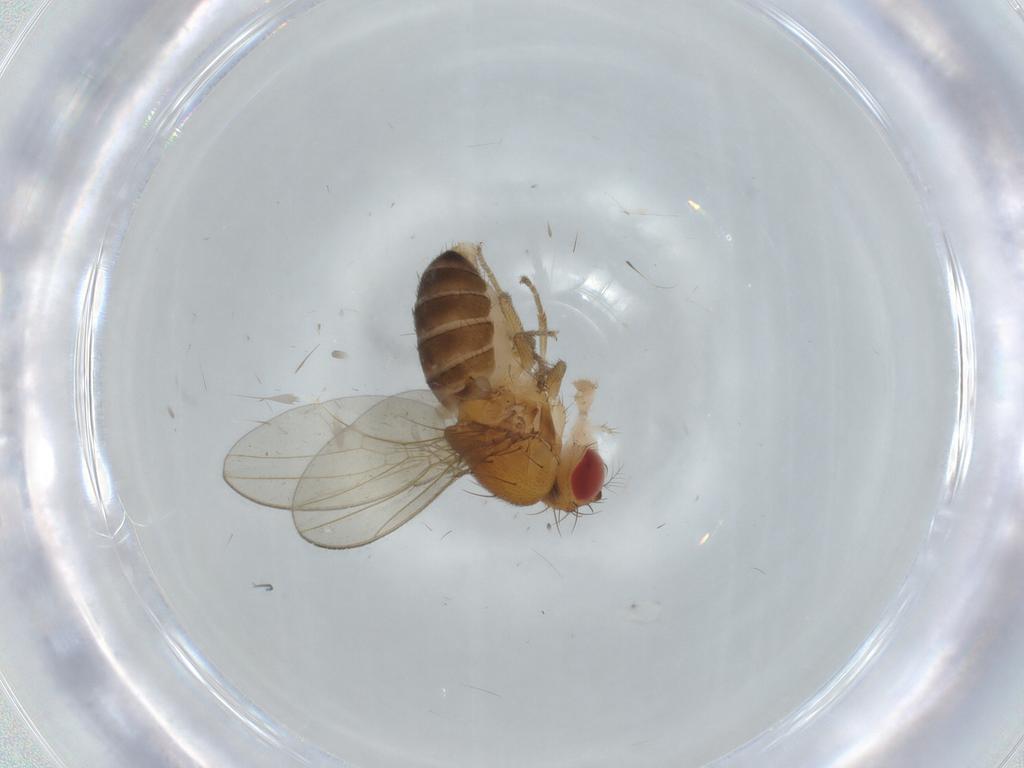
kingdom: Animalia
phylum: Arthropoda
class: Insecta
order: Diptera
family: Drosophilidae
